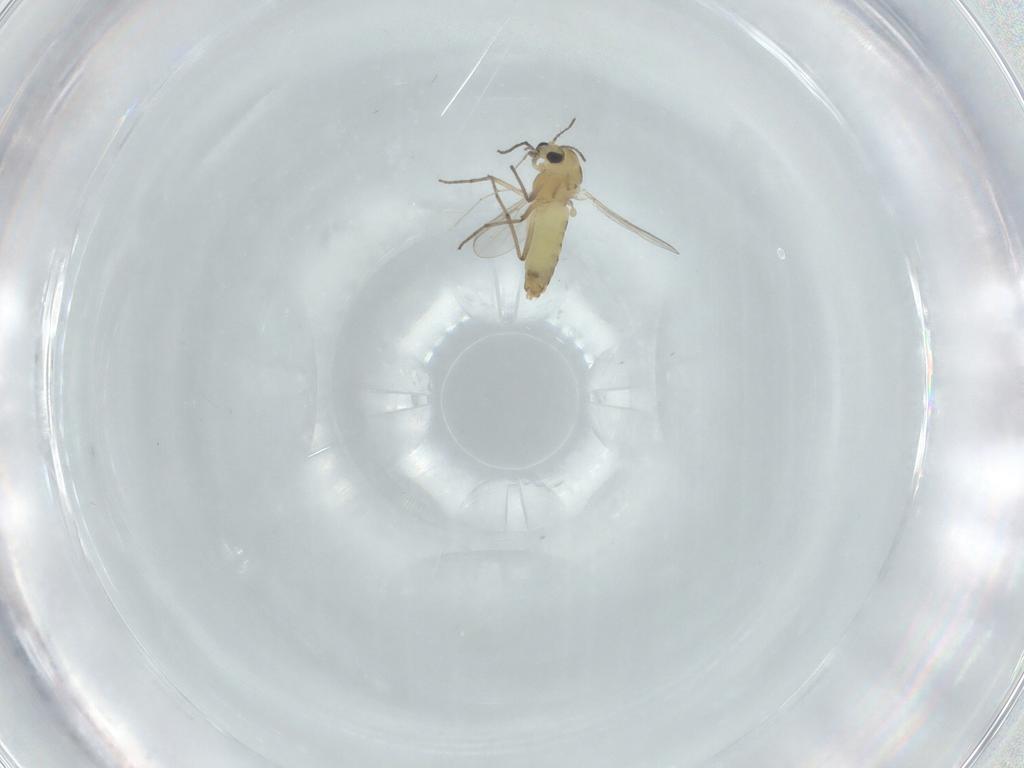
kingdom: Animalia
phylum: Arthropoda
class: Insecta
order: Diptera
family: Chironomidae
